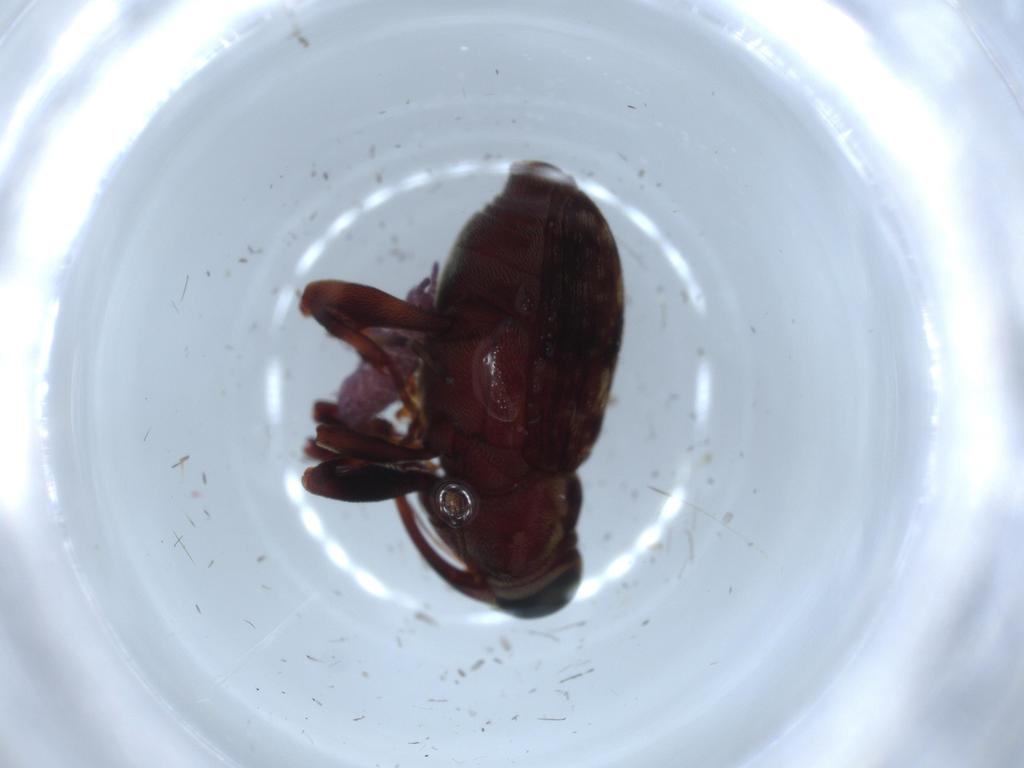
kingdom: Animalia
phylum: Arthropoda
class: Insecta
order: Coleoptera
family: Curculionidae
